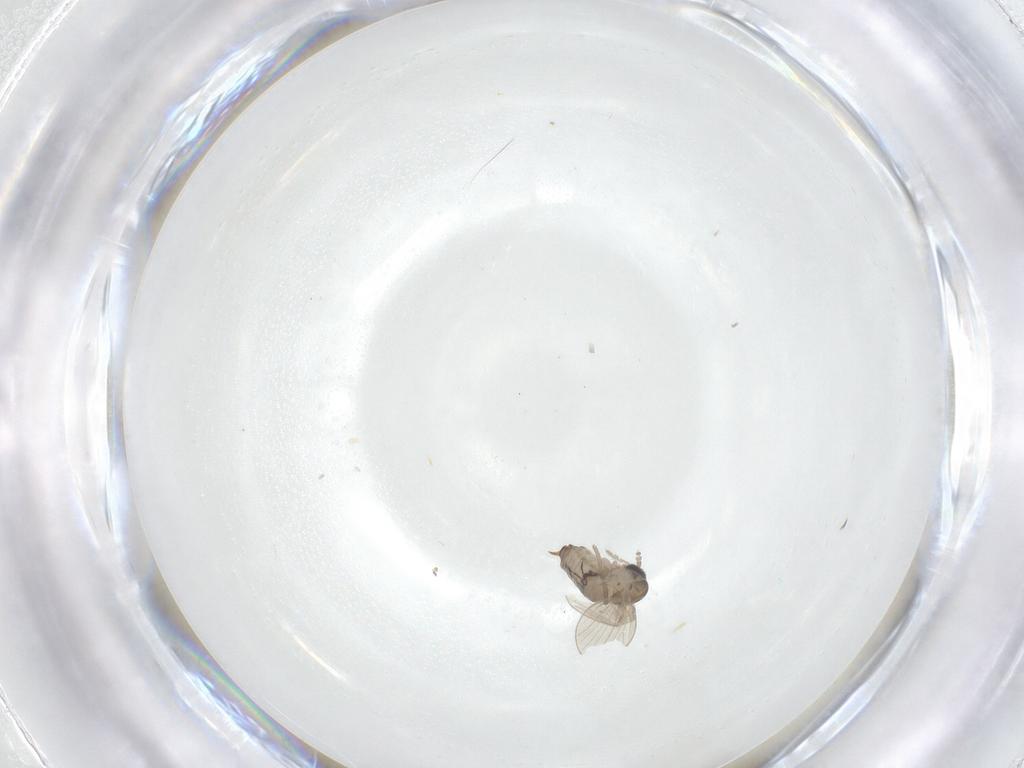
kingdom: Animalia
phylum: Arthropoda
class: Insecta
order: Diptera
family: Psychodidae
